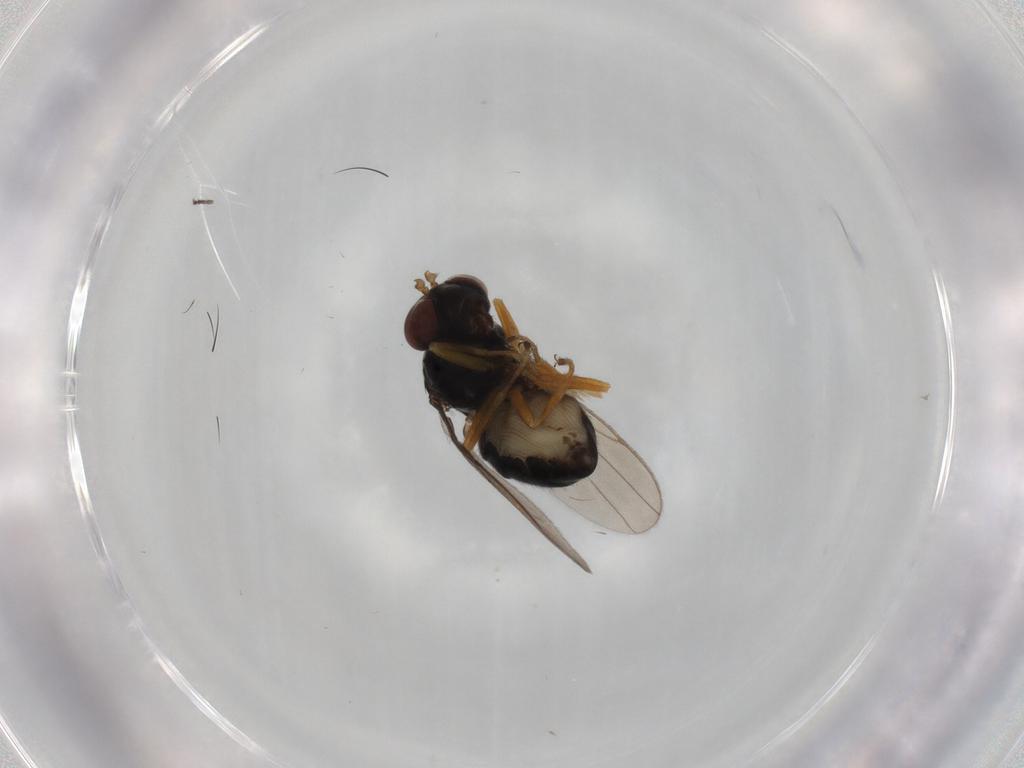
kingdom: Animalia
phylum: Arthropoda
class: Insecta
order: Diptera
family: Ephydridae
